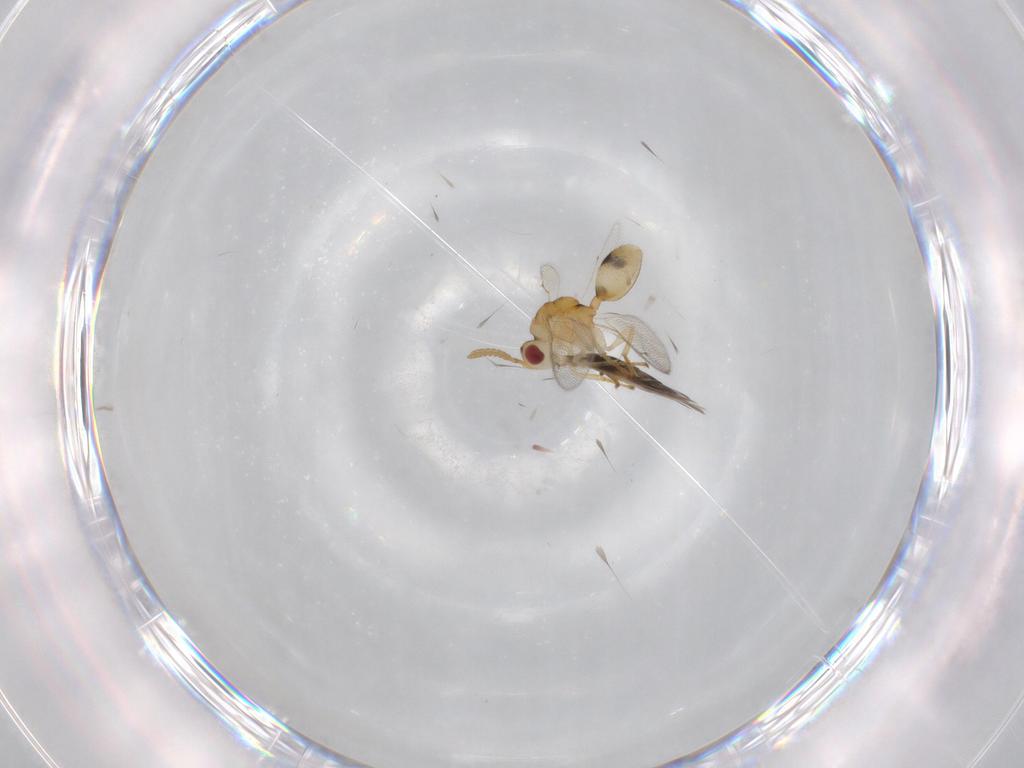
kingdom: Animalia
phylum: Arthropoda
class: Insecta
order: Hymenoptera
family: Eurytomidae
